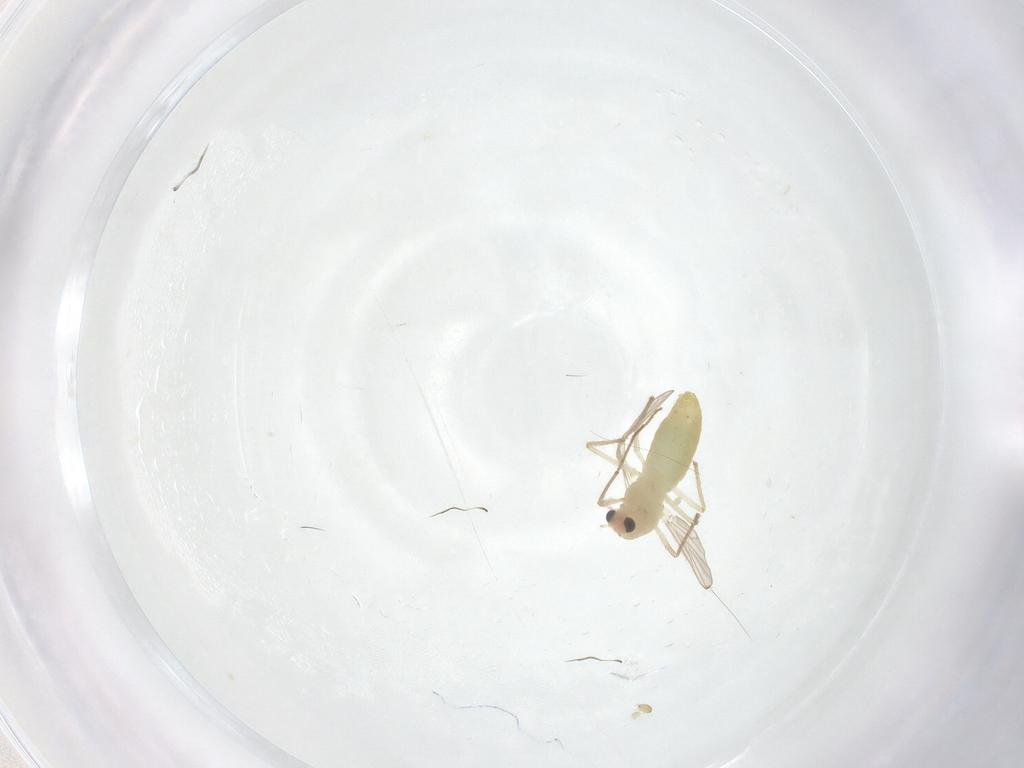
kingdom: Animalia
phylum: Arthropoda
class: Insecta
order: Diptera
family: Chironomidae
